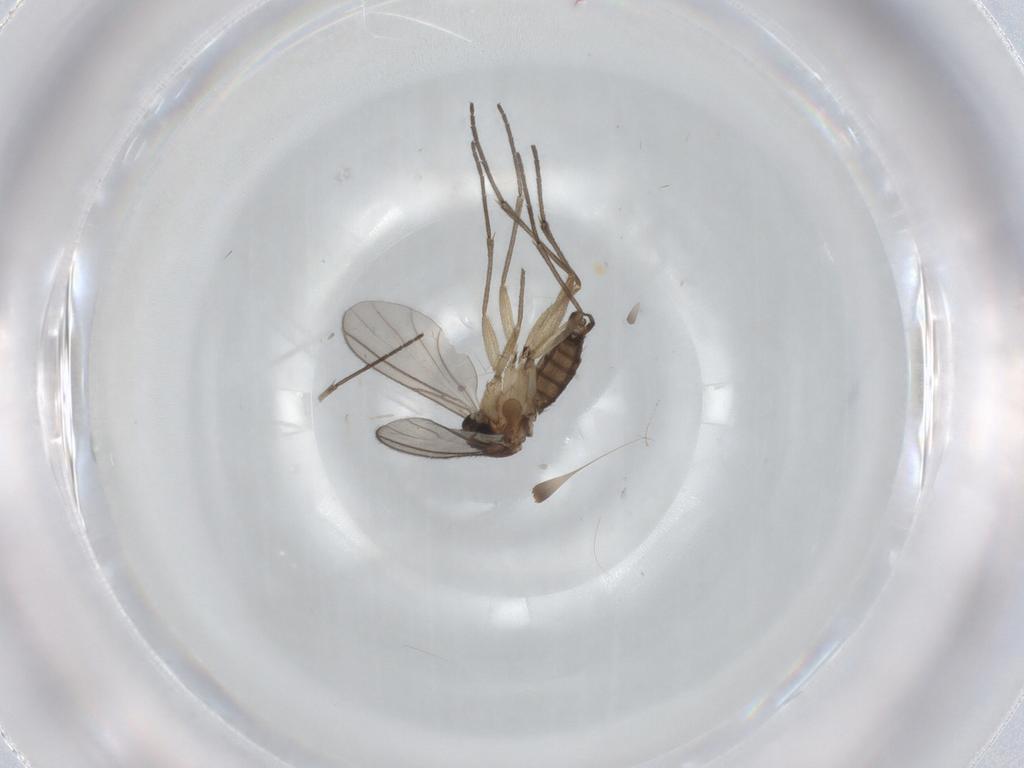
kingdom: Animalia
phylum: Arthropoda
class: Insecta
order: Diptera
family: Sciaridae
